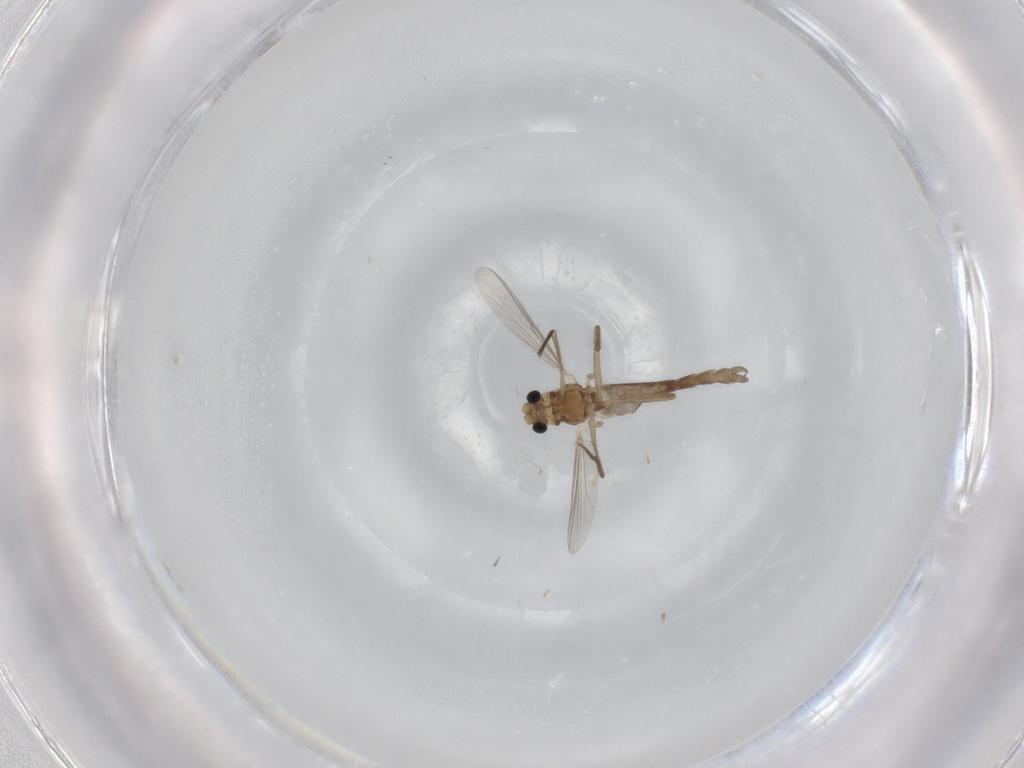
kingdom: Animalia
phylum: Arthropoda
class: Insecta
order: Diptera
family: Chironomidae
